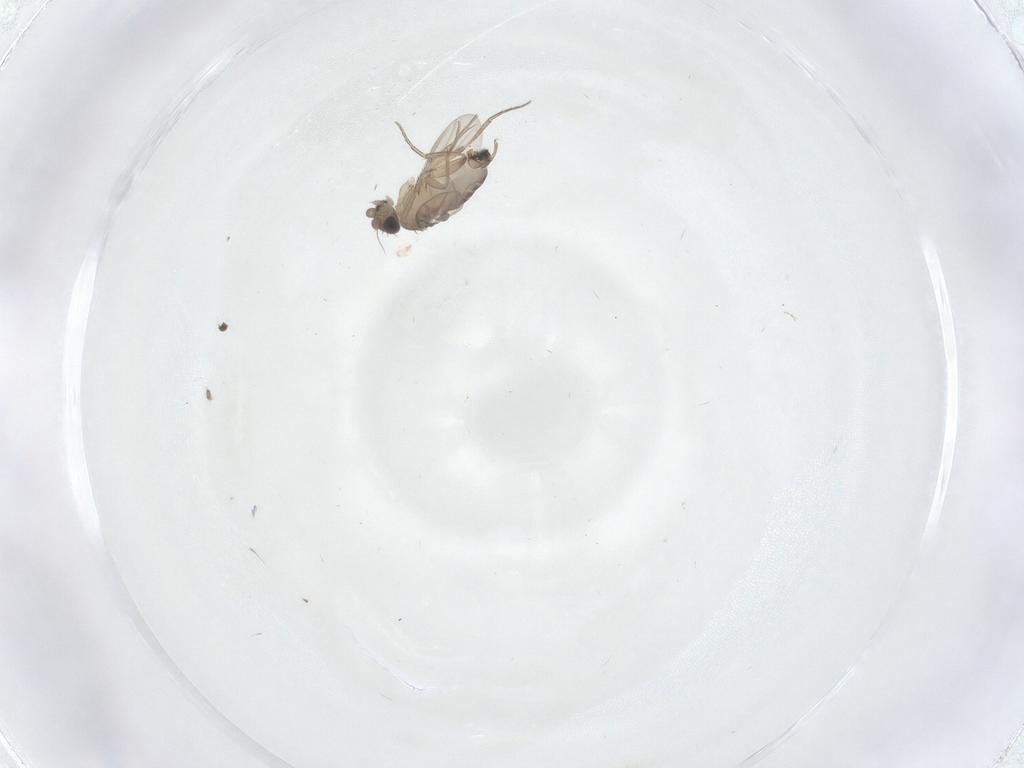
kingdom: Animalia
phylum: Arthropoda
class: Insecta
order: Diptera
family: Phoridae
